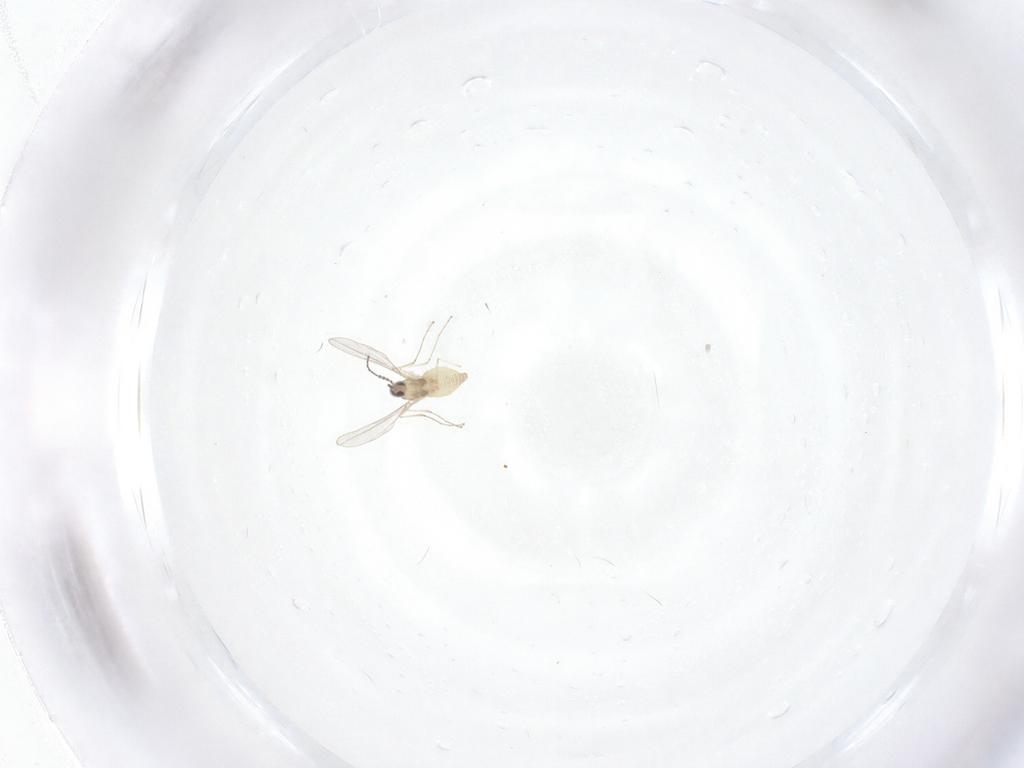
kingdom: Animalia
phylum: Arthropoda
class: Insecta
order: Diptera
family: Cecidomyiidae
